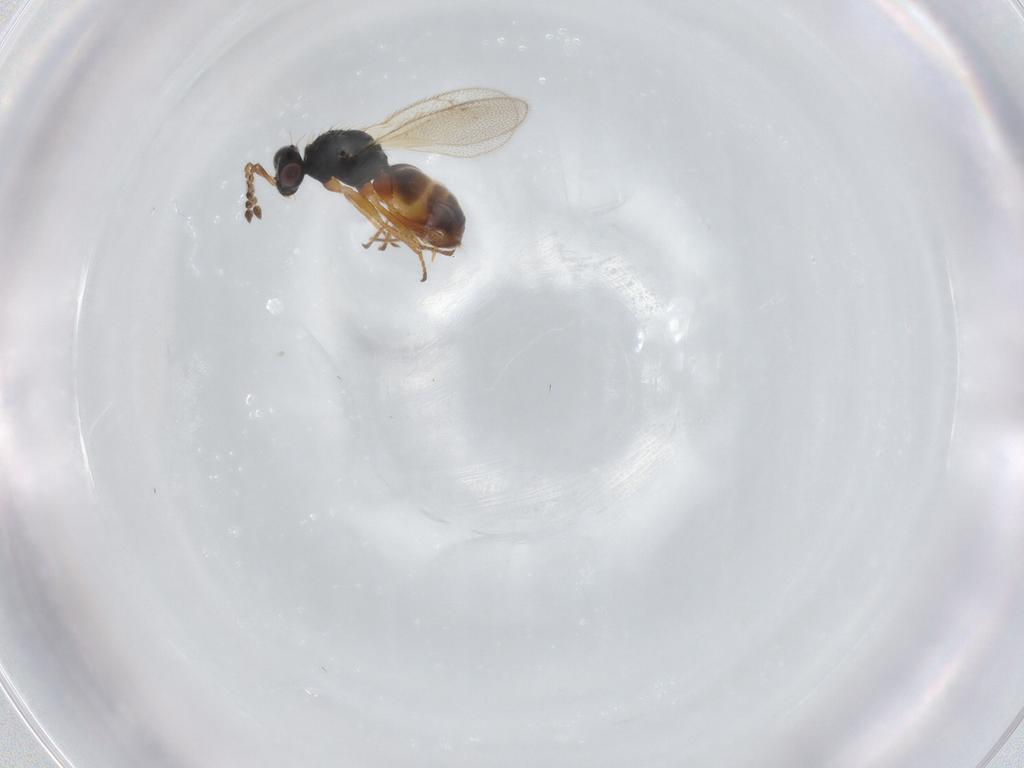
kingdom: Animalia
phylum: Arthropoda
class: Insecta
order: Hymenoptera
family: Eulophidae
